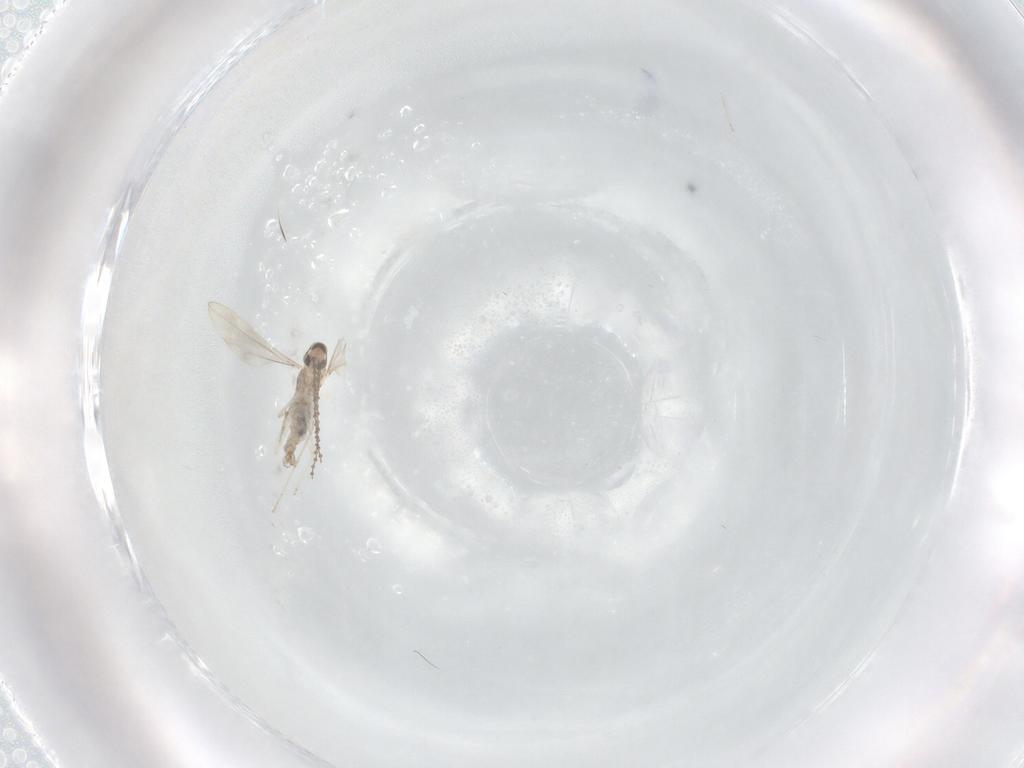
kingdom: Animalia
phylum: Arthropoda
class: Insecta
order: Diptera
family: Cecidomyiidae
